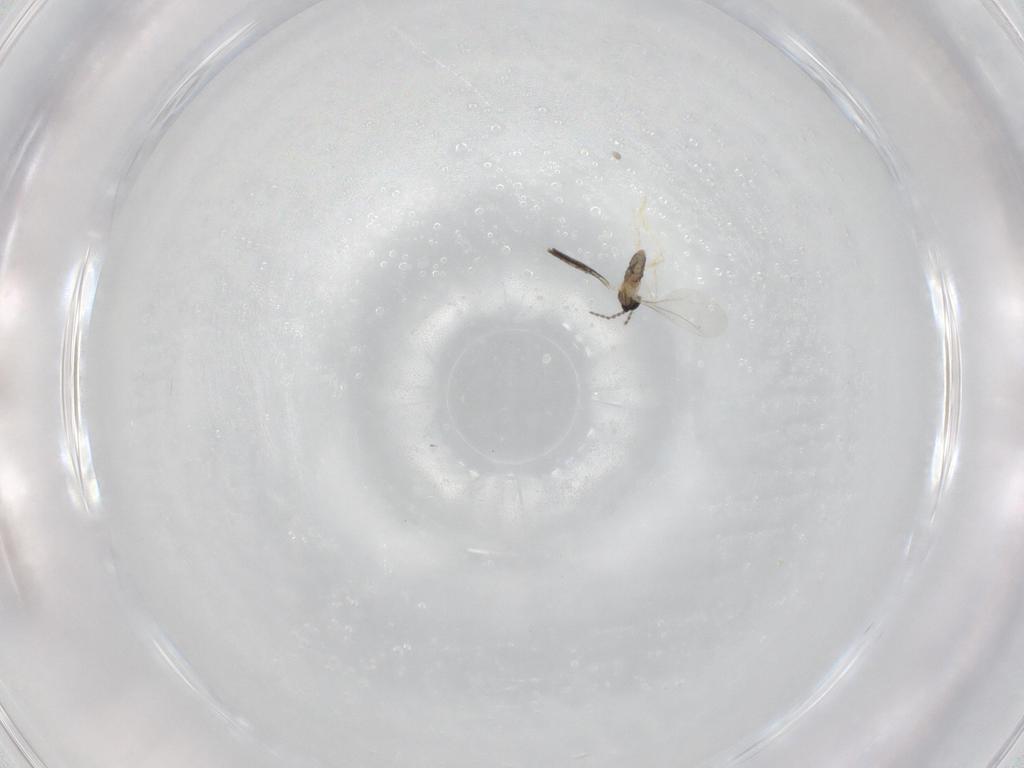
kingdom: Animalia
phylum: Arthropoda
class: Insecta
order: Diptera
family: Cecidomyiidae
